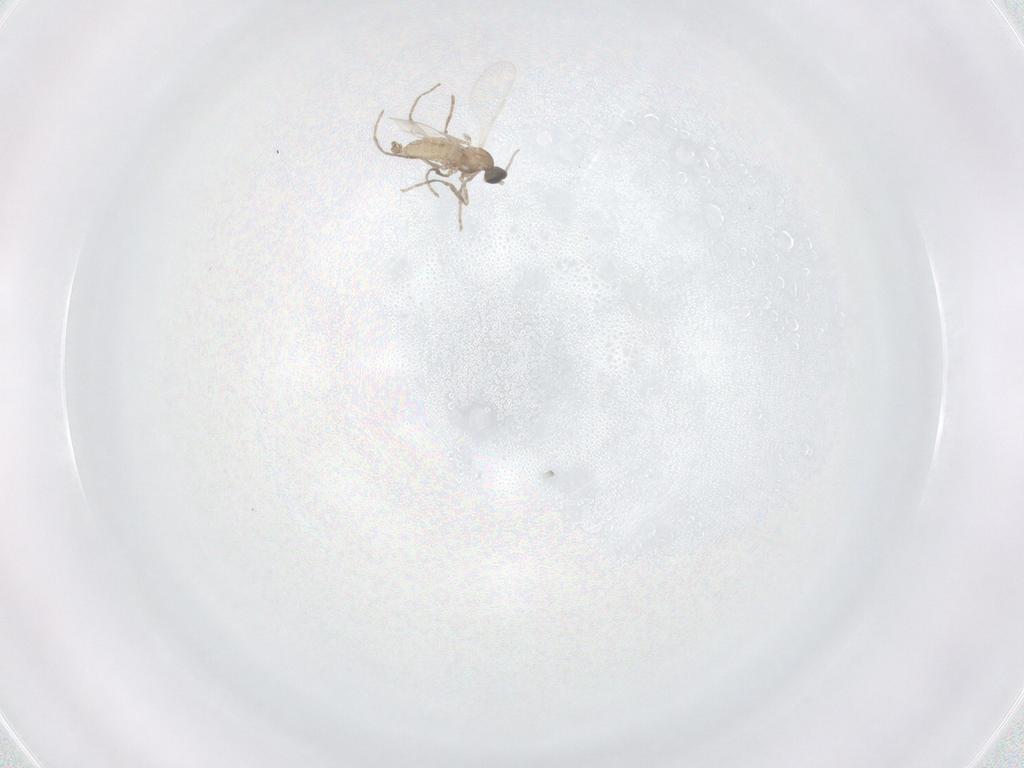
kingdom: Animalia
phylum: Arthropoda
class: Insecta
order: Diptera
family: Cecidomyiidae
